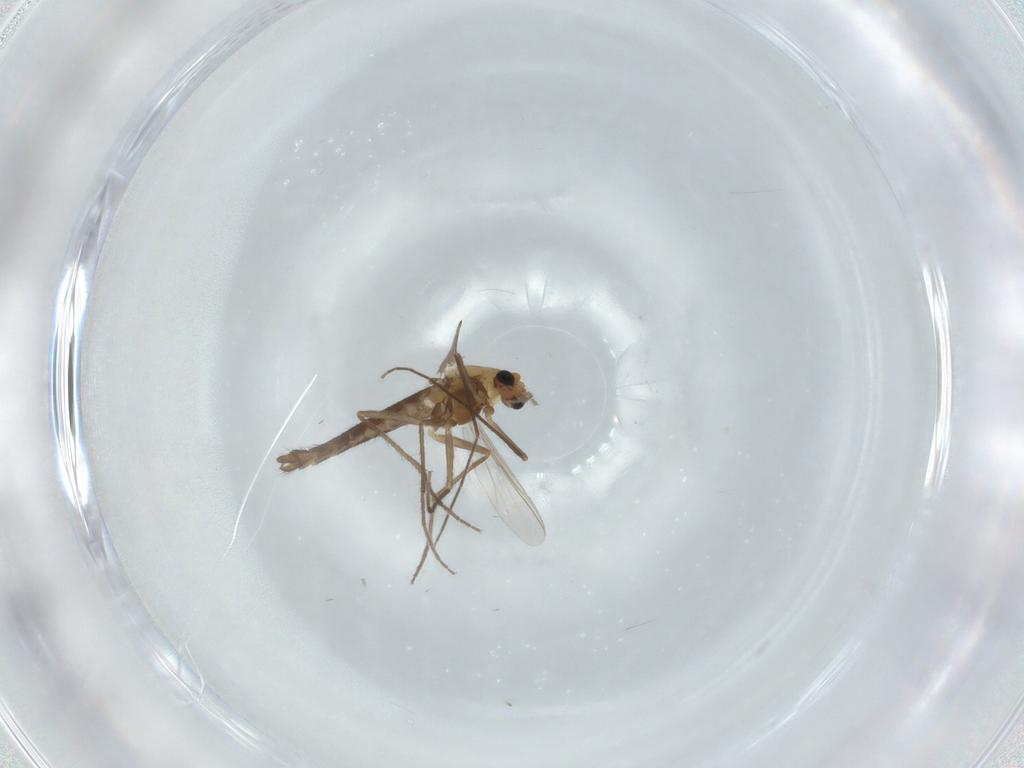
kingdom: Animalia
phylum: Arthropoda
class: Insecta
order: Diptera
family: Chironomidae
